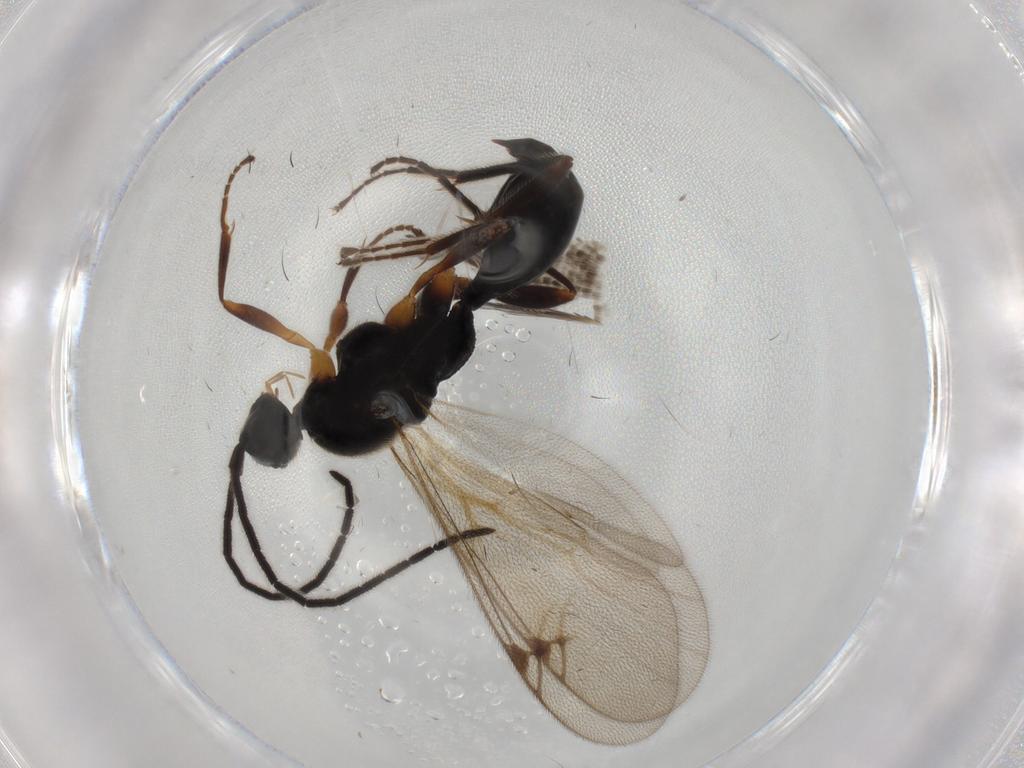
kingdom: Animalia
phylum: Arthropoda
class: Insecta
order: Hymenoptera
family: Proctotrupidae
